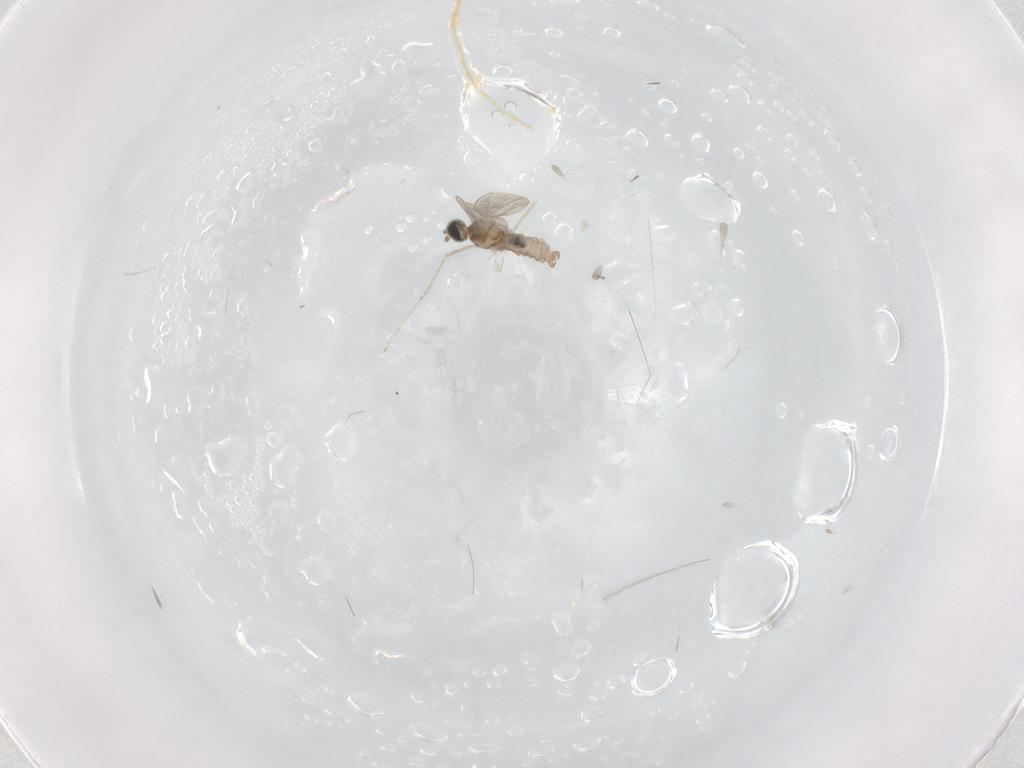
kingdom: Animalia
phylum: Arthropoda
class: Insecta
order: Diptera
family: Cecidomyiidae
